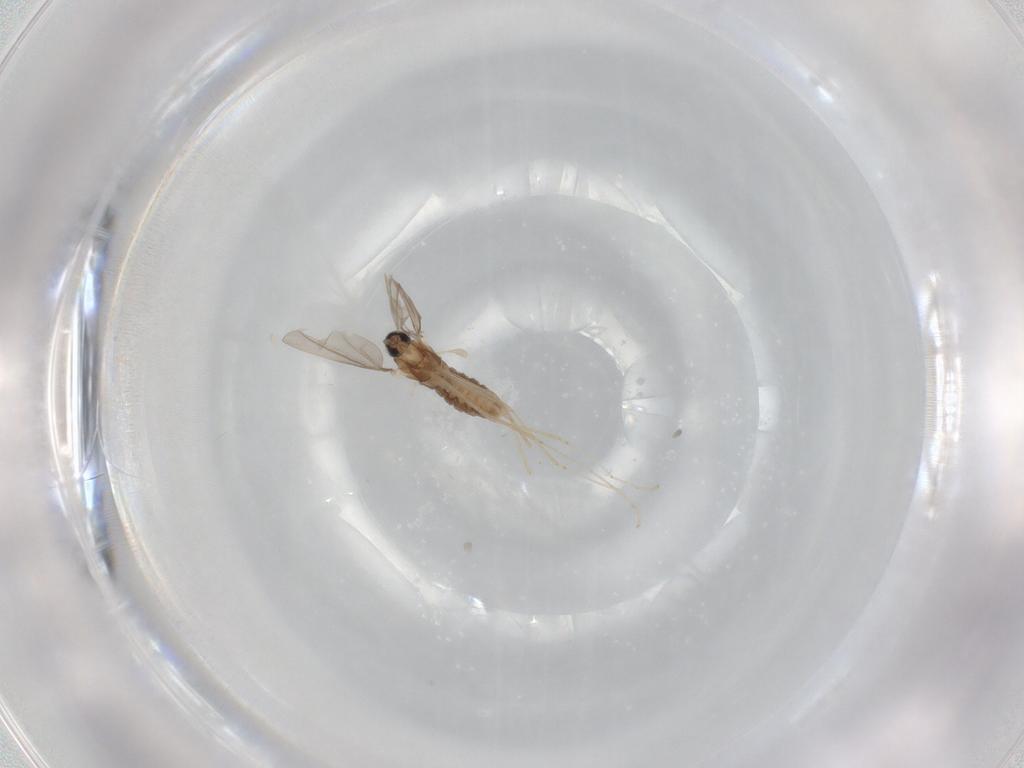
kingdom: Animalia
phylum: Arthropoda
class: Insecta
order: Diptera
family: Cecidomyiidae
